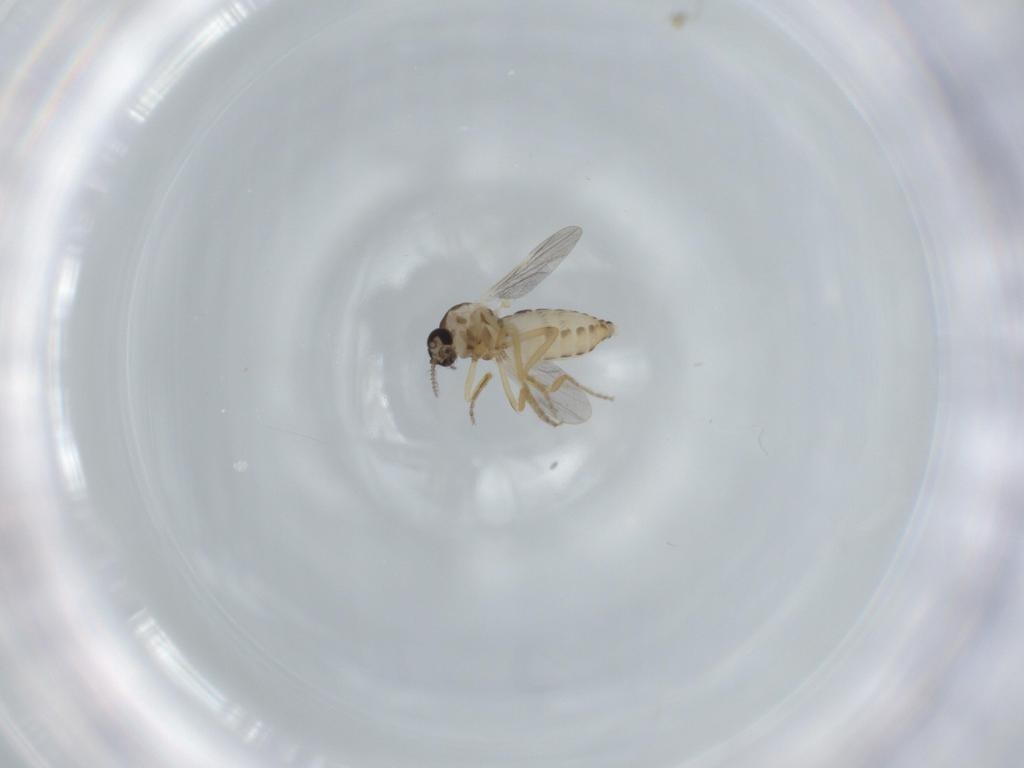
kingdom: Animalia
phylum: Arthropoda
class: Insecta
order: Diptera
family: Ceratopogonidae
